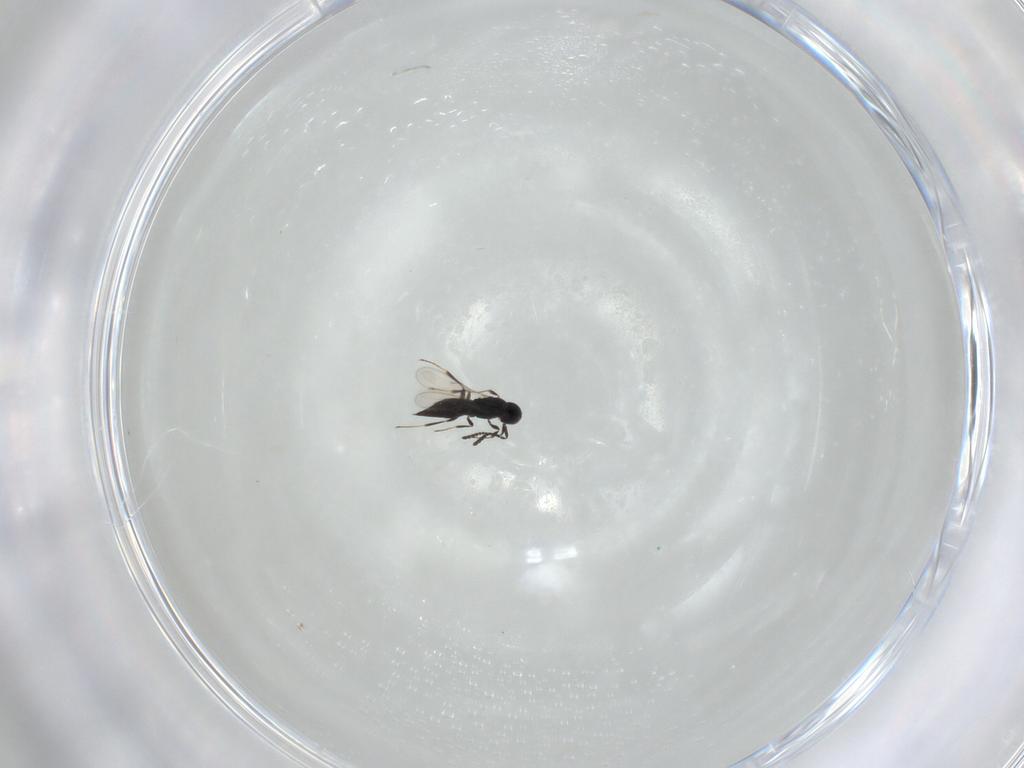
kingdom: Animalia
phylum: Arthropoda
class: Insecta
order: Hymenoptera
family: Scelionidae
